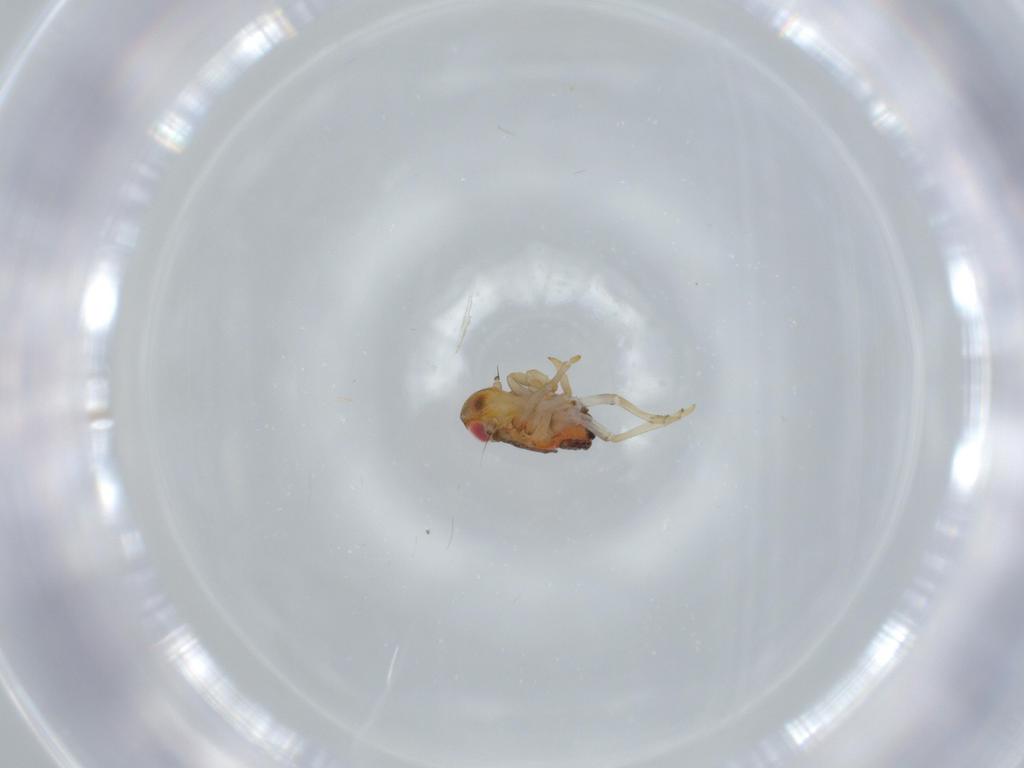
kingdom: Animalia
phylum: Arthropoda
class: Insecta
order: Hemiptera
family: Issidae
